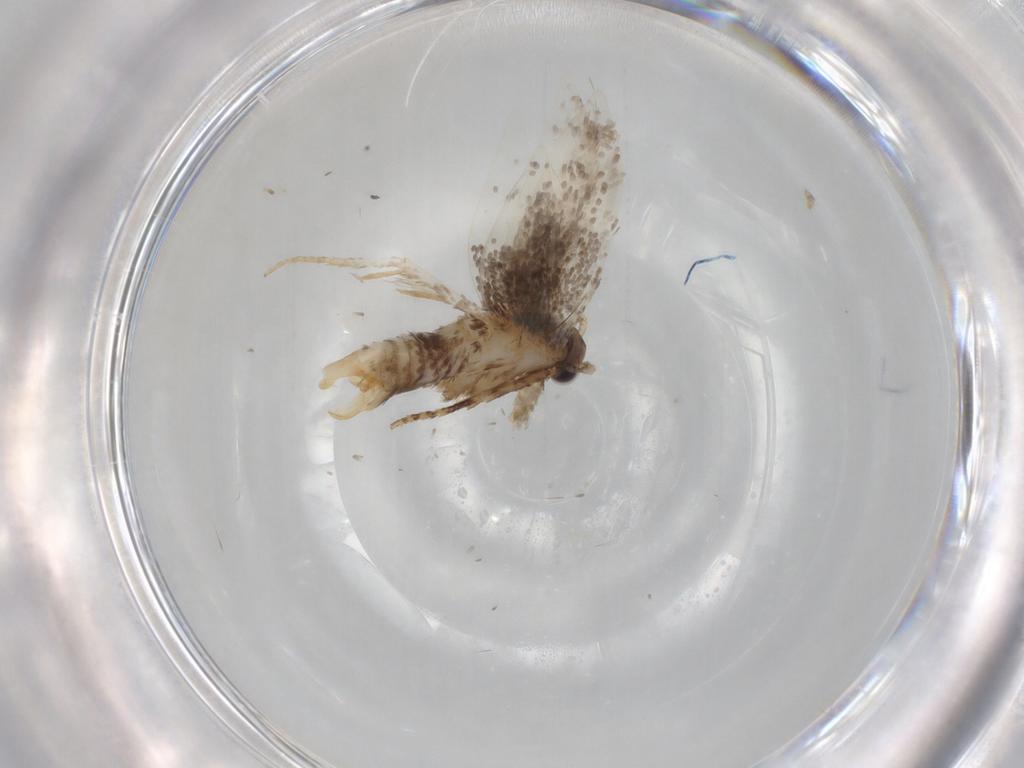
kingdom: Animalia
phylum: Arthropoda
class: Insecta
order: Lepidoptera
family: Tineidae
